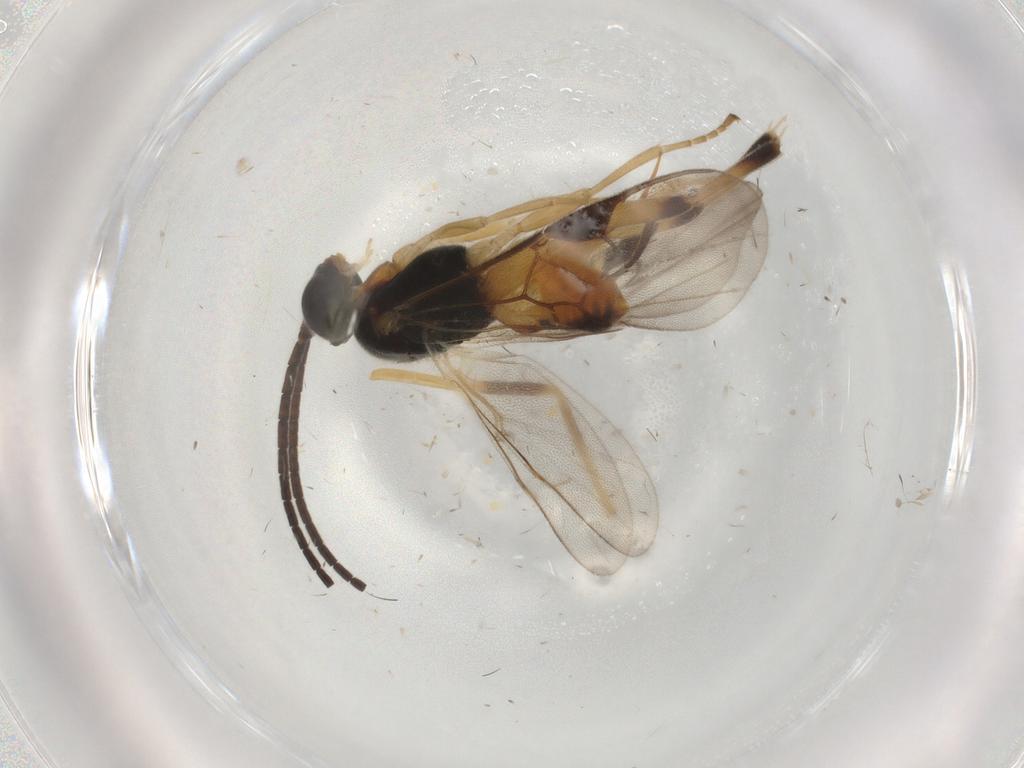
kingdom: Animalia
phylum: Arthropoda
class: Insecta
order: Hymenoptera
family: Braconidae
